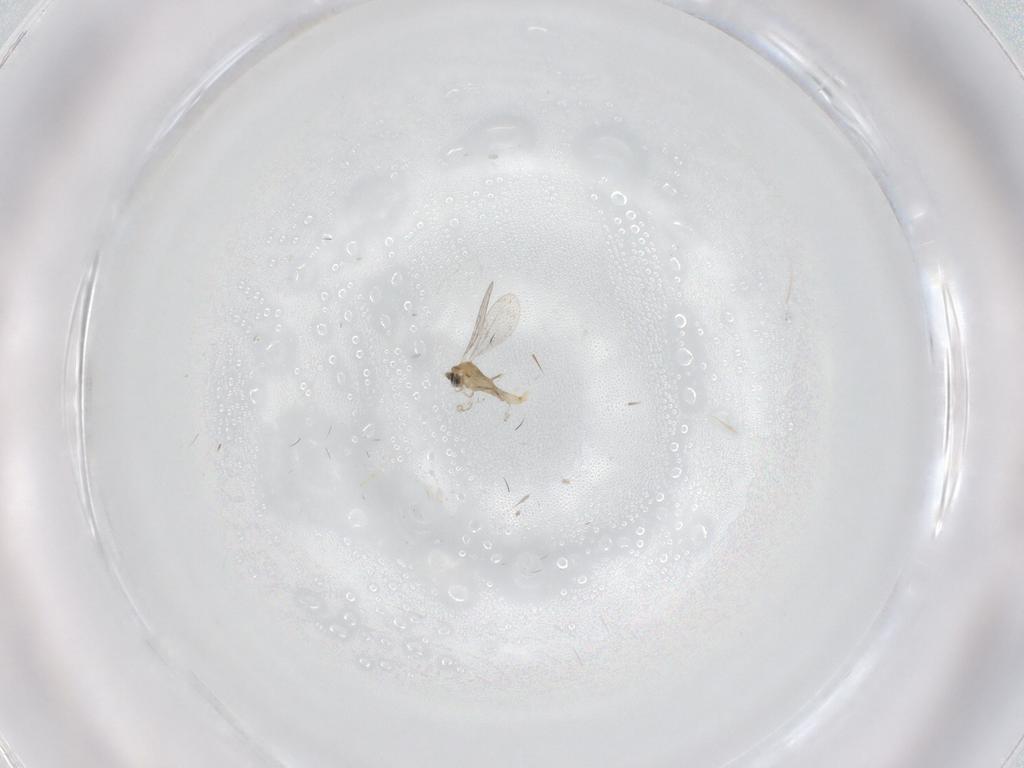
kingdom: Animalia
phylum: Arthropoda
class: Insecta
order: Diptera
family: Cecidomyiidae
